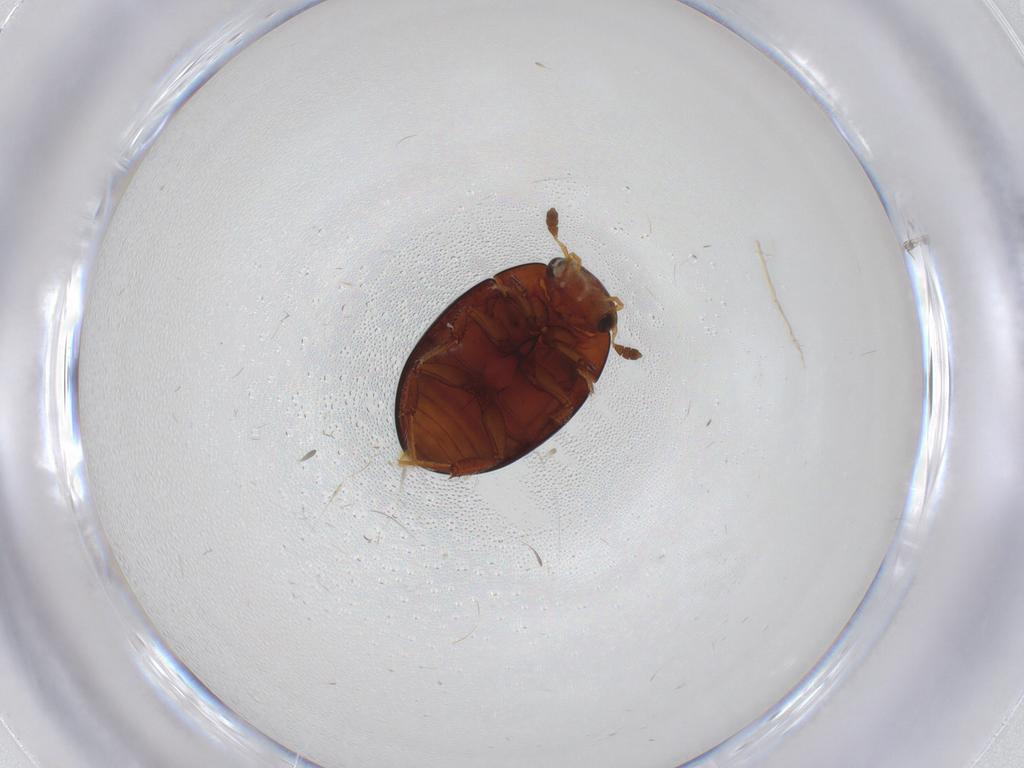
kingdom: Animalia
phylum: Arthropoda
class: Insecta
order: Coleoptera
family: Hydrophilidae
